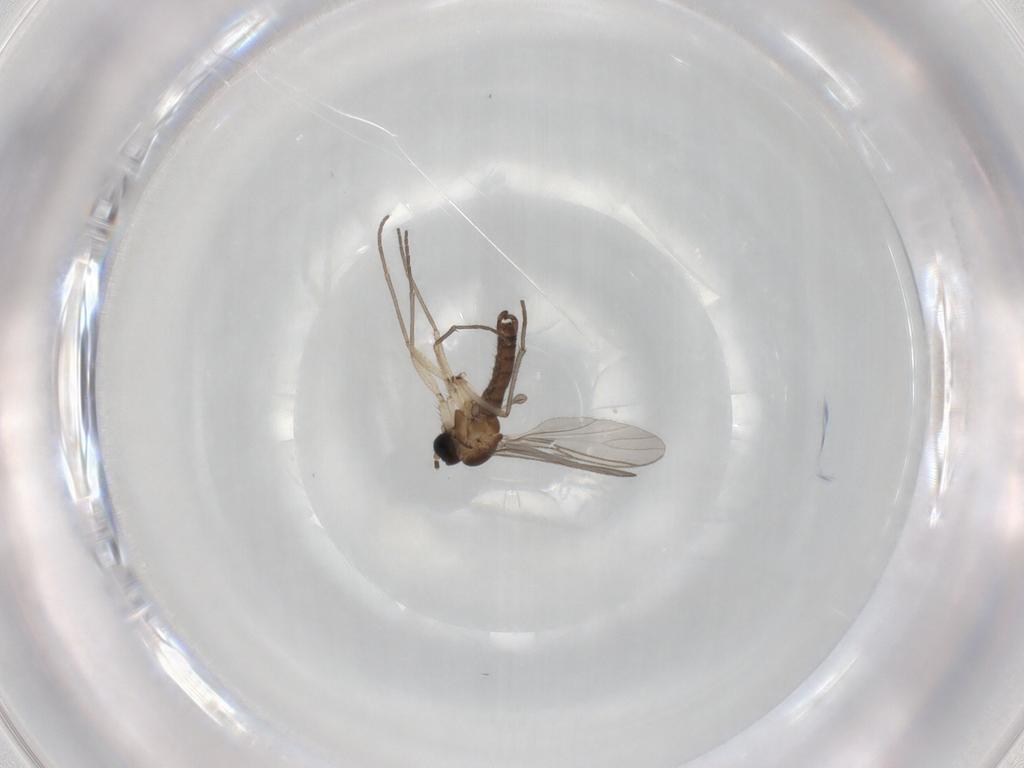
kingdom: Animalia
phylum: Arthropoda
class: Insecta
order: Diptera
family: Sciaridae
